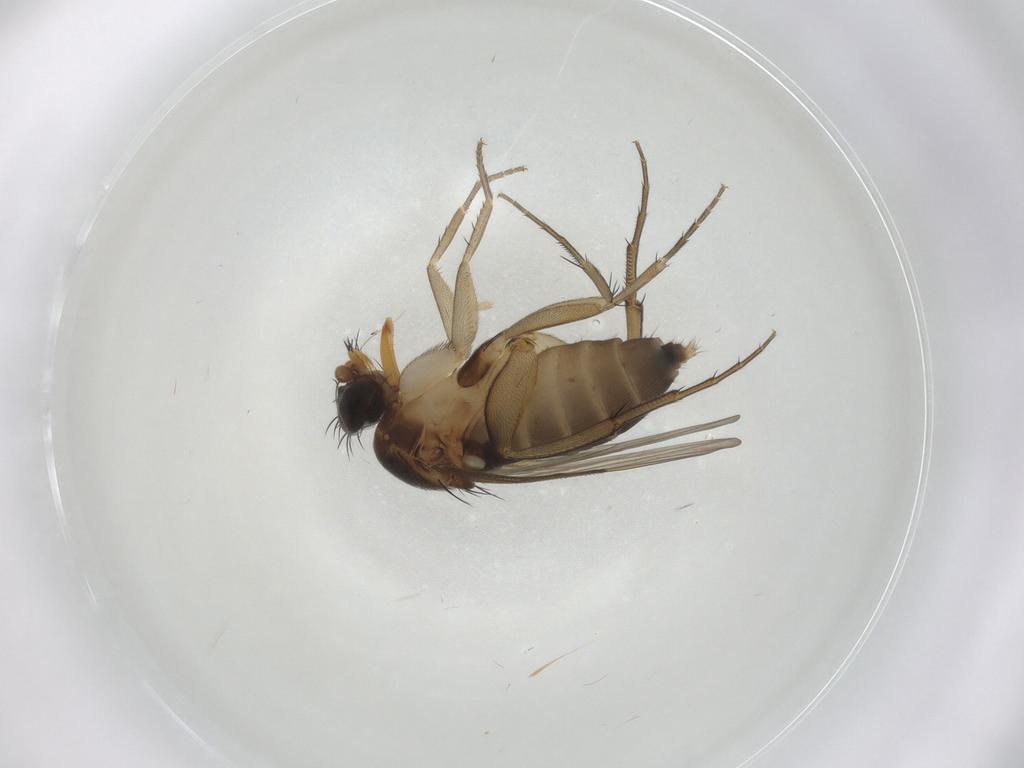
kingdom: Animalia
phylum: Arthropoda
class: Insecta
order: Diptera
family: Phoridae
